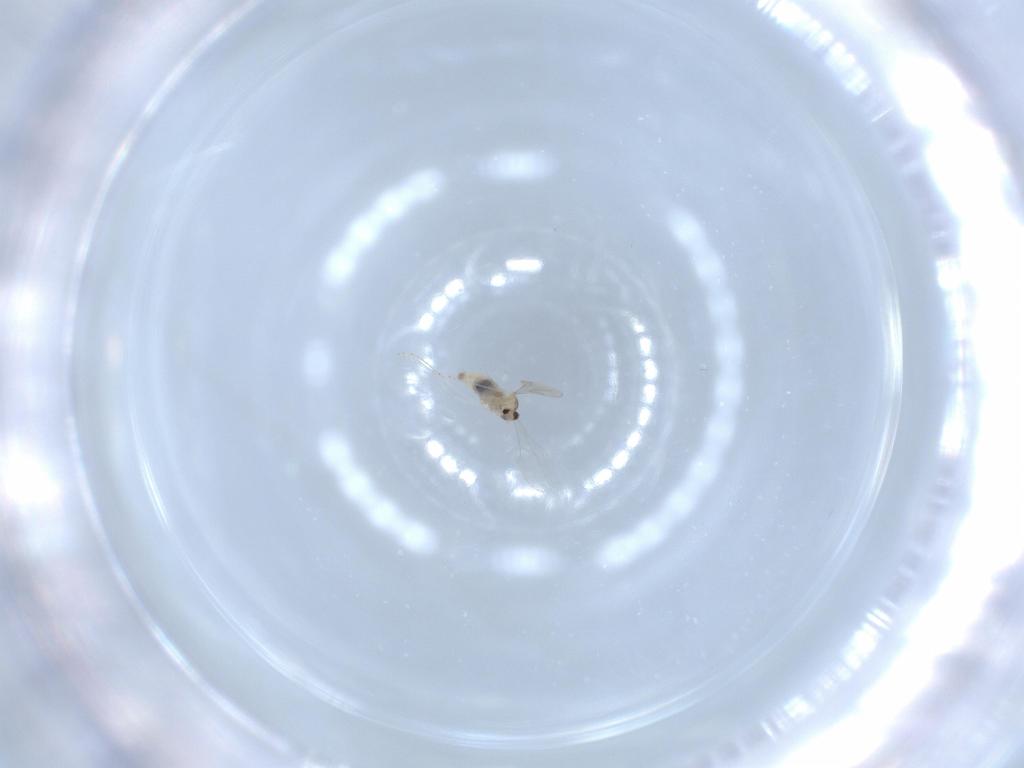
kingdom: Animalia
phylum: Arthropoda
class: Insecta
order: Diptera
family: Cecidomyiidae
